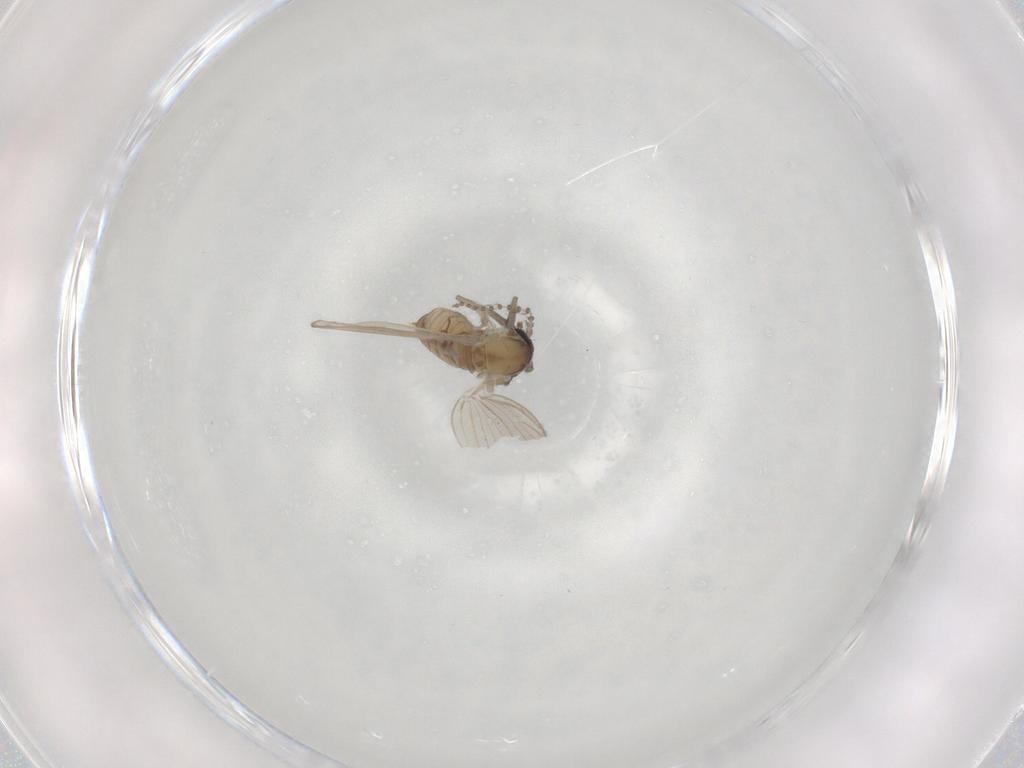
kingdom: Animalia
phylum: Arthropoda
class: Insecta
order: Diptera
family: Psychodidae
